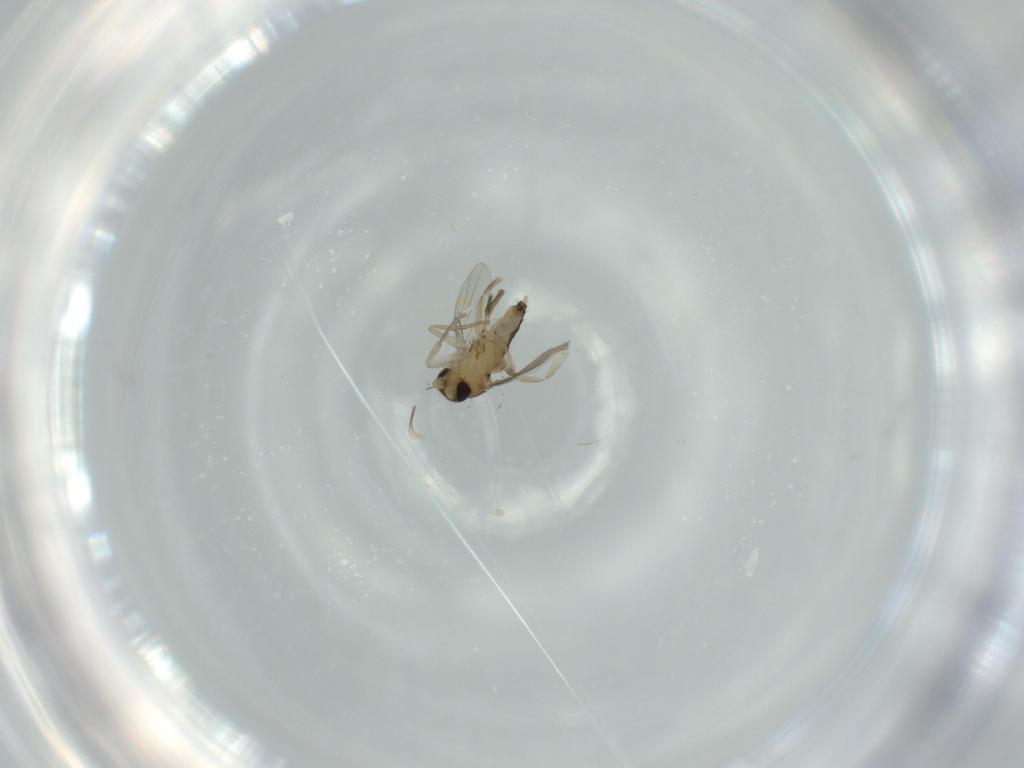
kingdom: Animalia
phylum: Arthropoda
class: Insecta
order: Diptera
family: Phoridae
